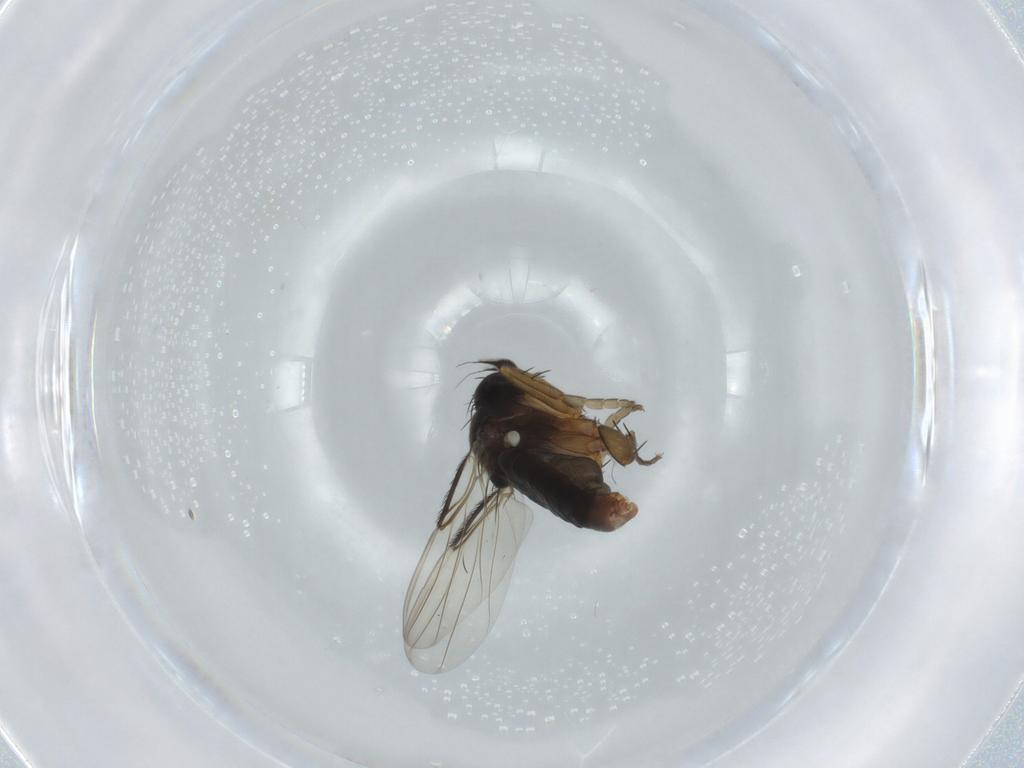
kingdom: Animalia
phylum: Arthropoda
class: Insecta
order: Diptera
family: Phoridae
